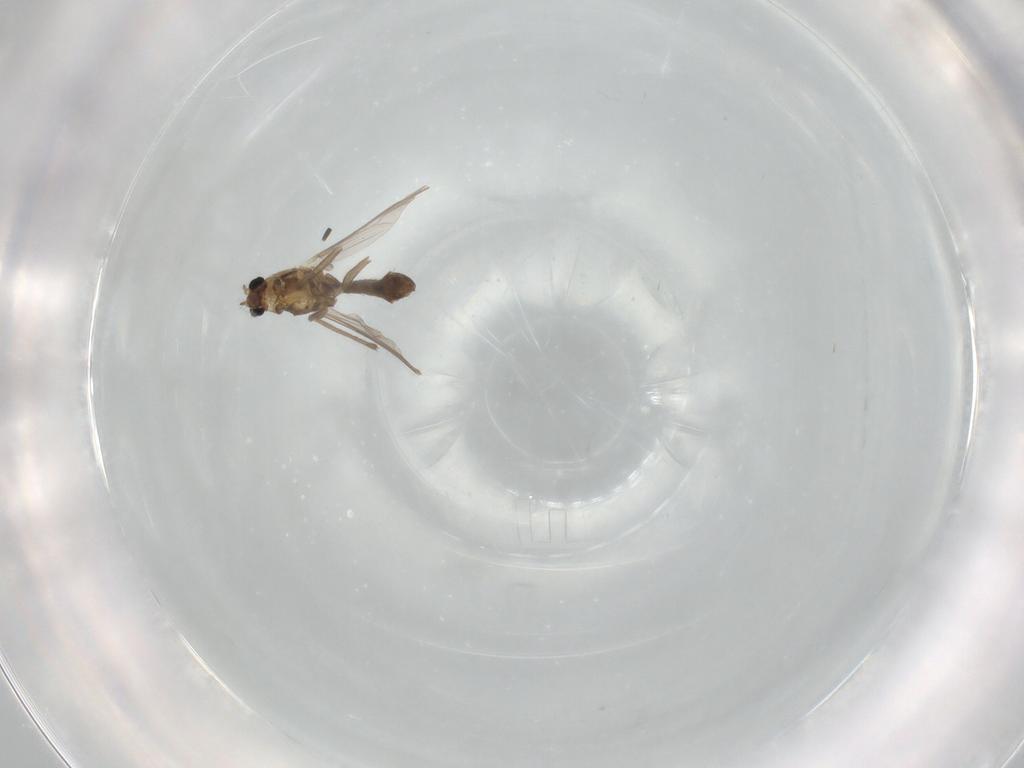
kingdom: Animalia
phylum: Arthropoda
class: Insecta
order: Diptera
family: Chironomidae
